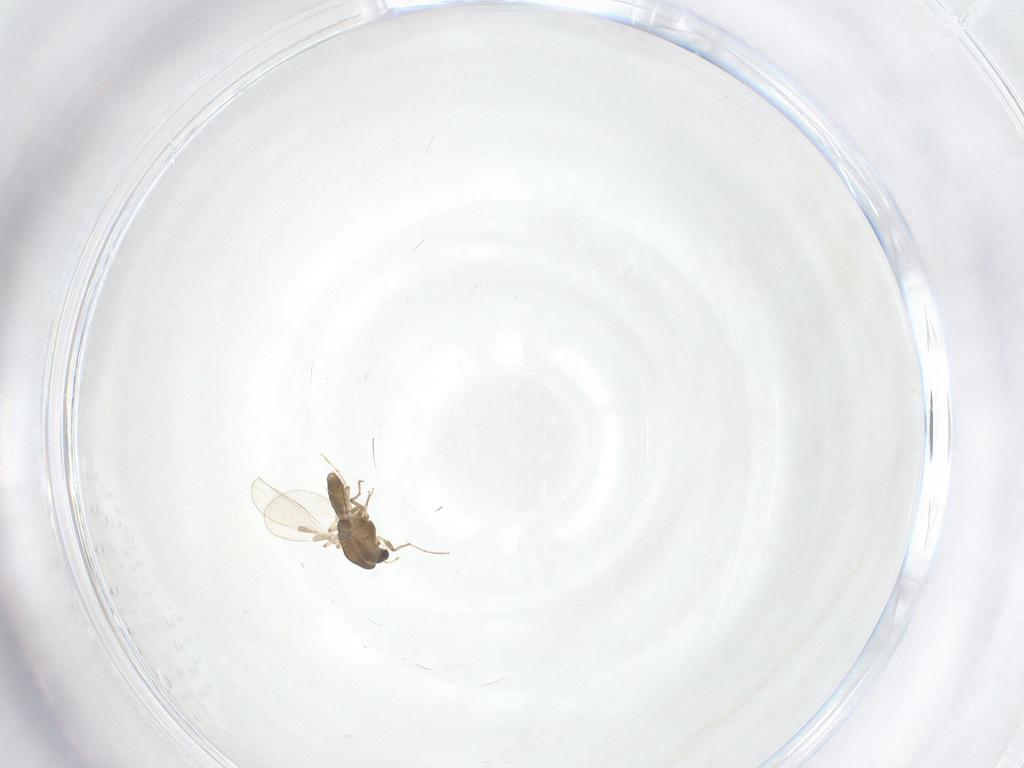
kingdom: Animalia
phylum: Arthropoda
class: Insecta
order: Diptera
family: Chironomidae
